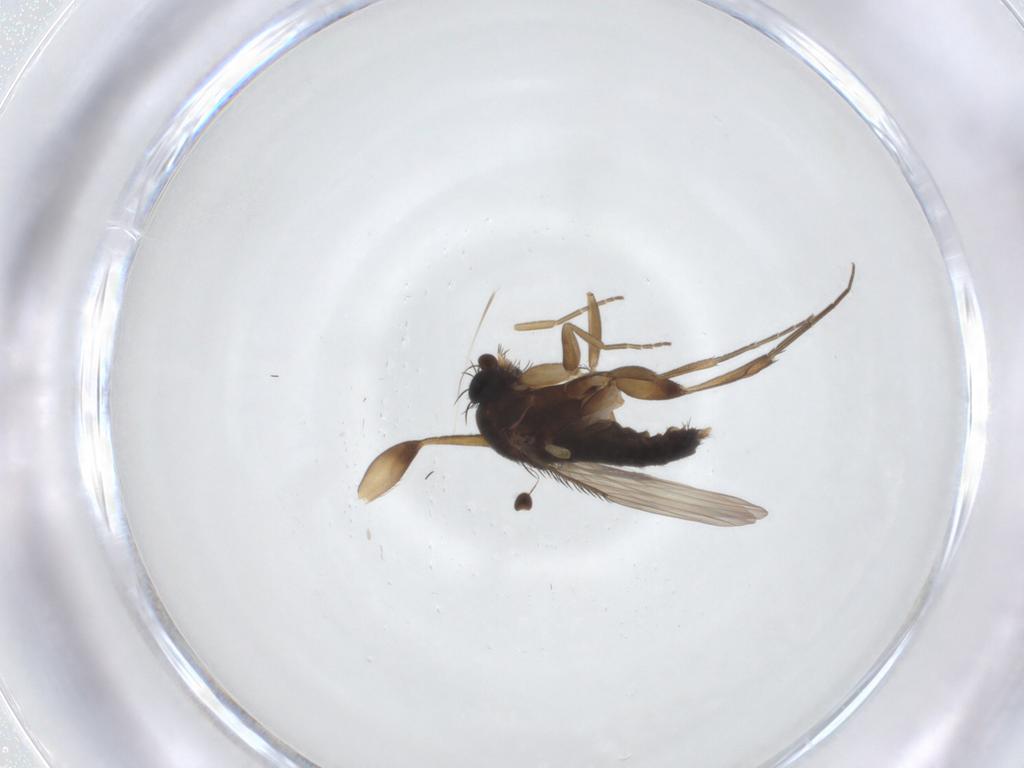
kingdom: Animalia
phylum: Arthropoda
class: Insecta
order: Diptera
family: Phoridae
